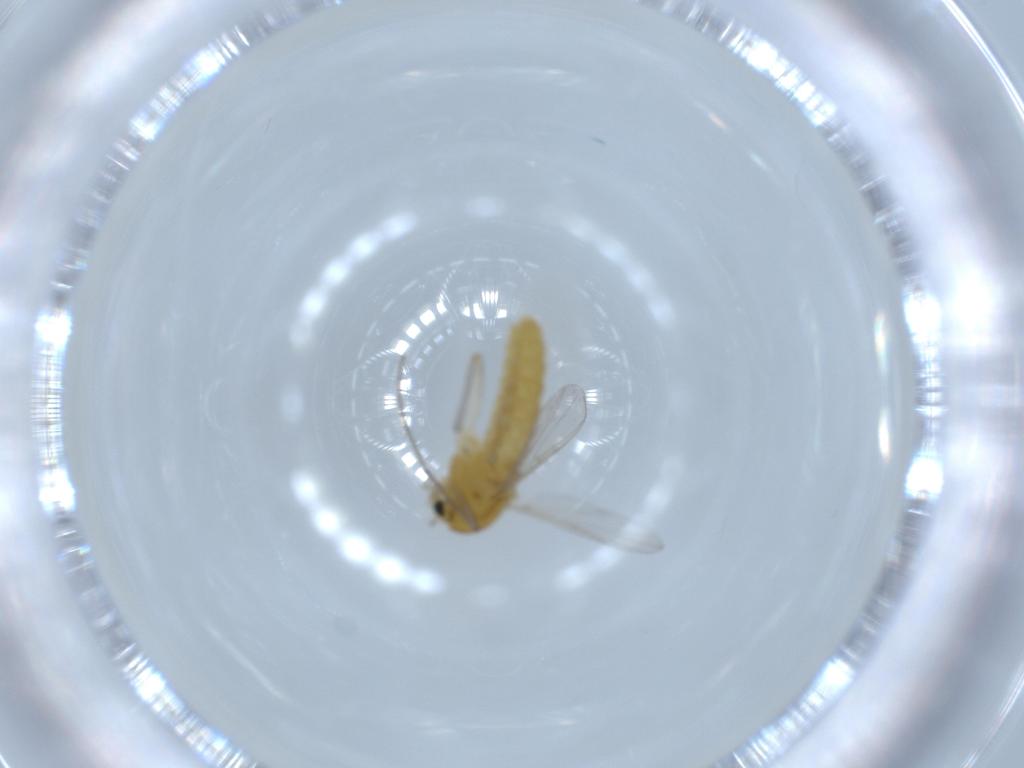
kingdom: Animalia
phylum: Arthropoda
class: Insecta
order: Diptera
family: Chironomidae
